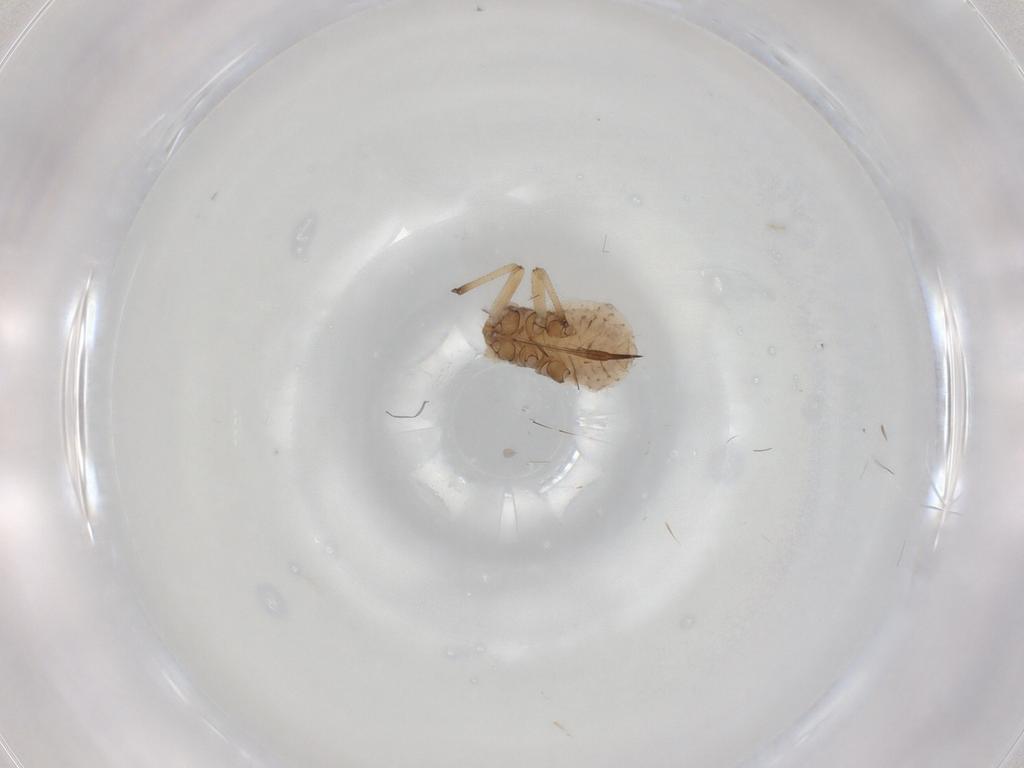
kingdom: Animalia
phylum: Arthropoda
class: Insecta
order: Hemiptera
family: Aphididae
